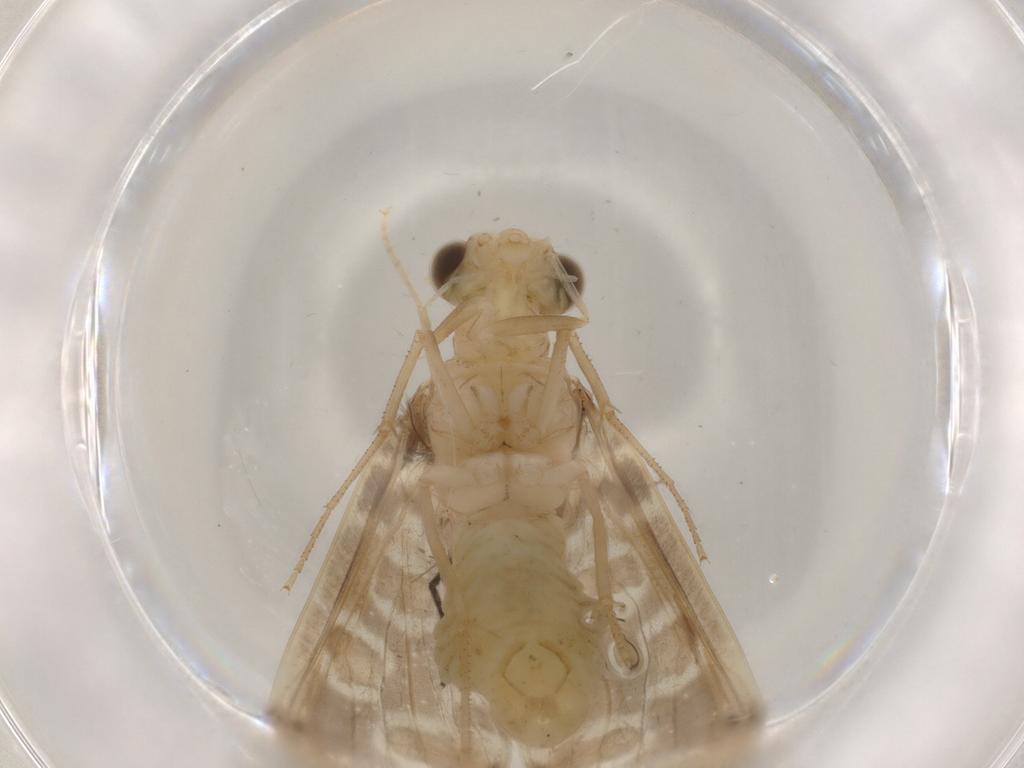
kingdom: Animalia
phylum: Arthropoda
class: Insecta
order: Trichoptera
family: Leptoceridae
